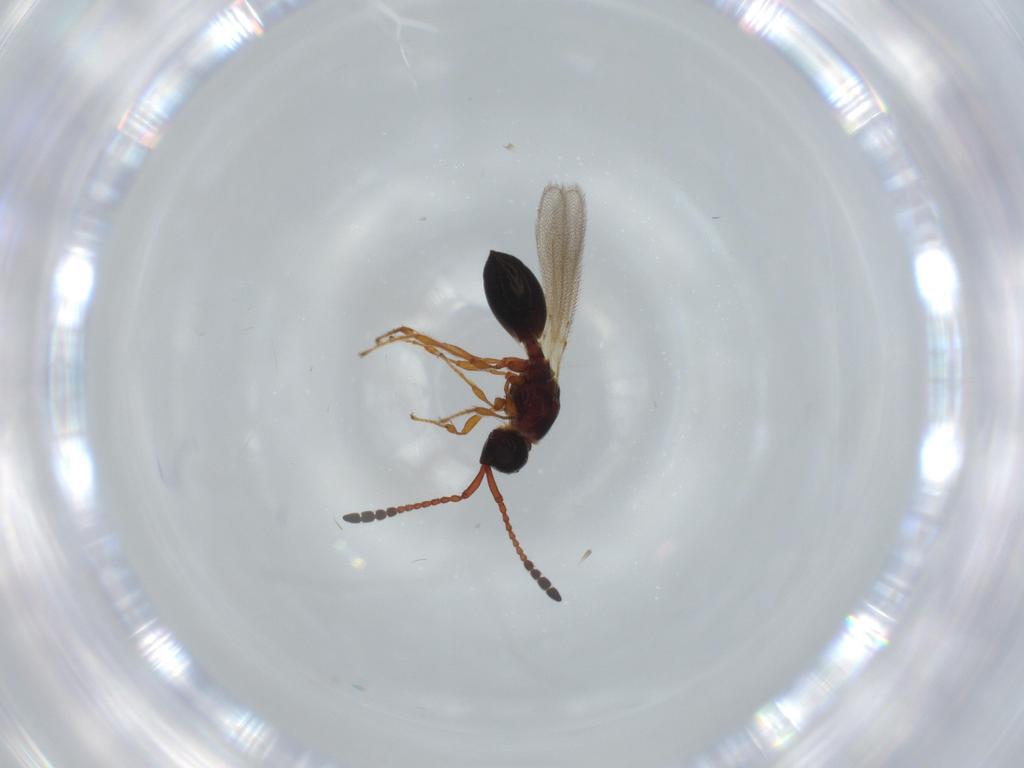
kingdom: Animalia
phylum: Arthropoda
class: Insecta
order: Hymenoptera
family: Diapriidae
